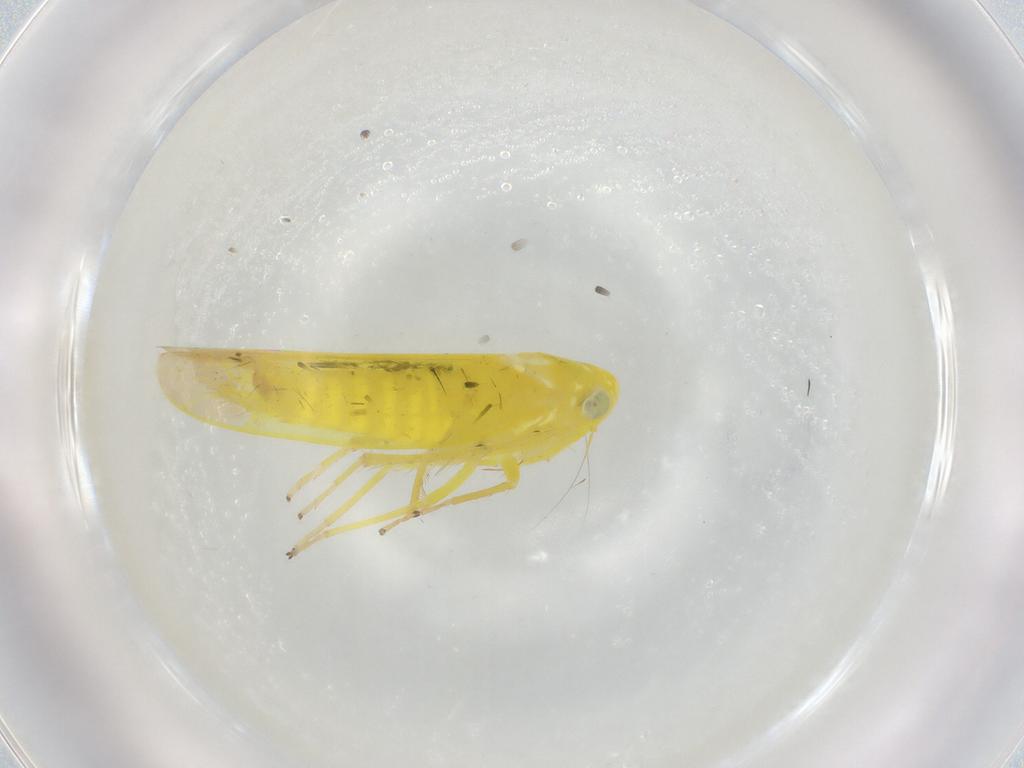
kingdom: Animalia
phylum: Arthropoda
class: Insecta
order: Hemiptera
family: Cicadellidae
